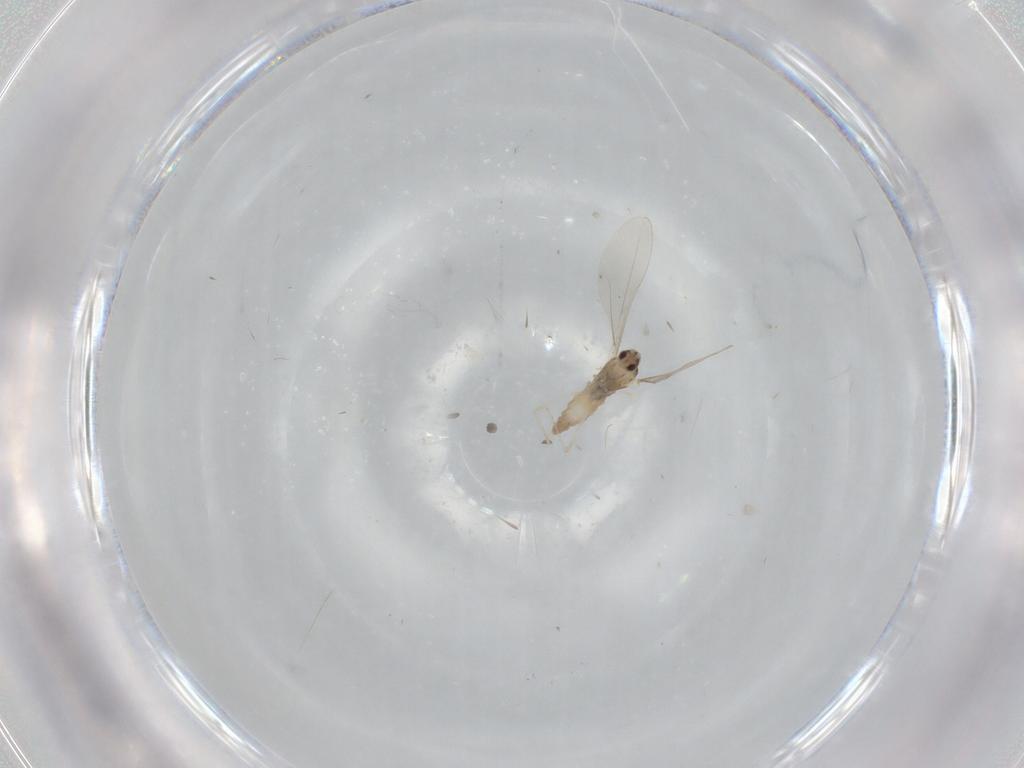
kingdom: Animalia
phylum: Arthropoda
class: Insecta
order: Diptera
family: Cecidomyiidae
